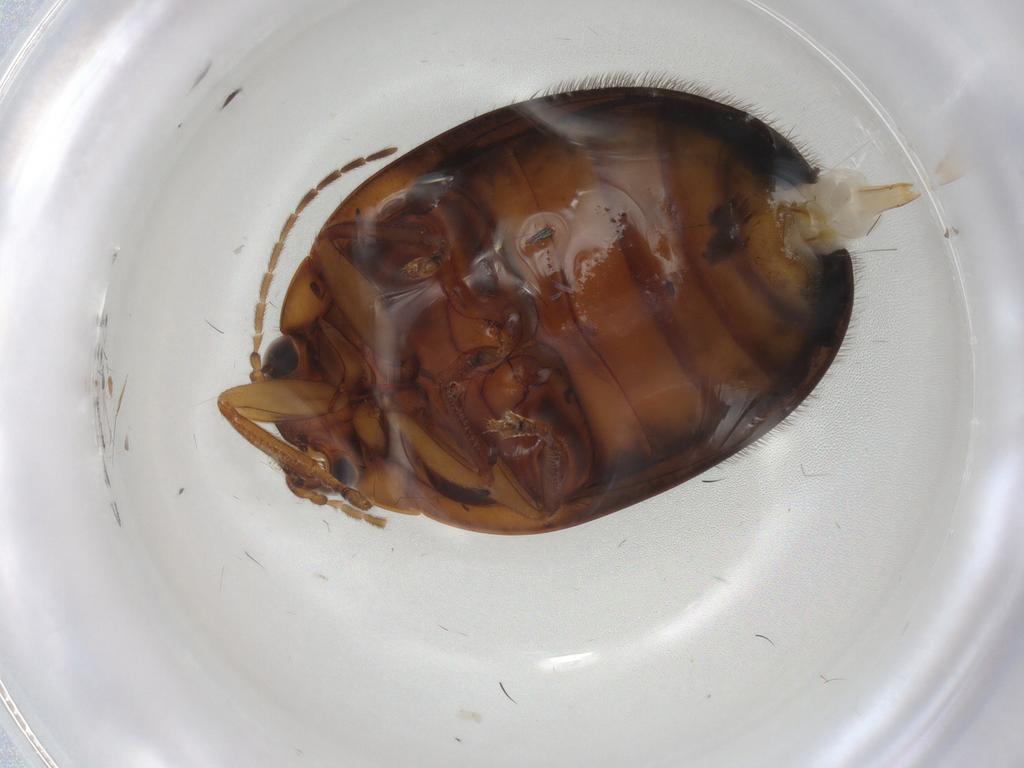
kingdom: Animalia
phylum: Arthropoda
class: Insecta
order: Coleoptera
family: Scirtidae
